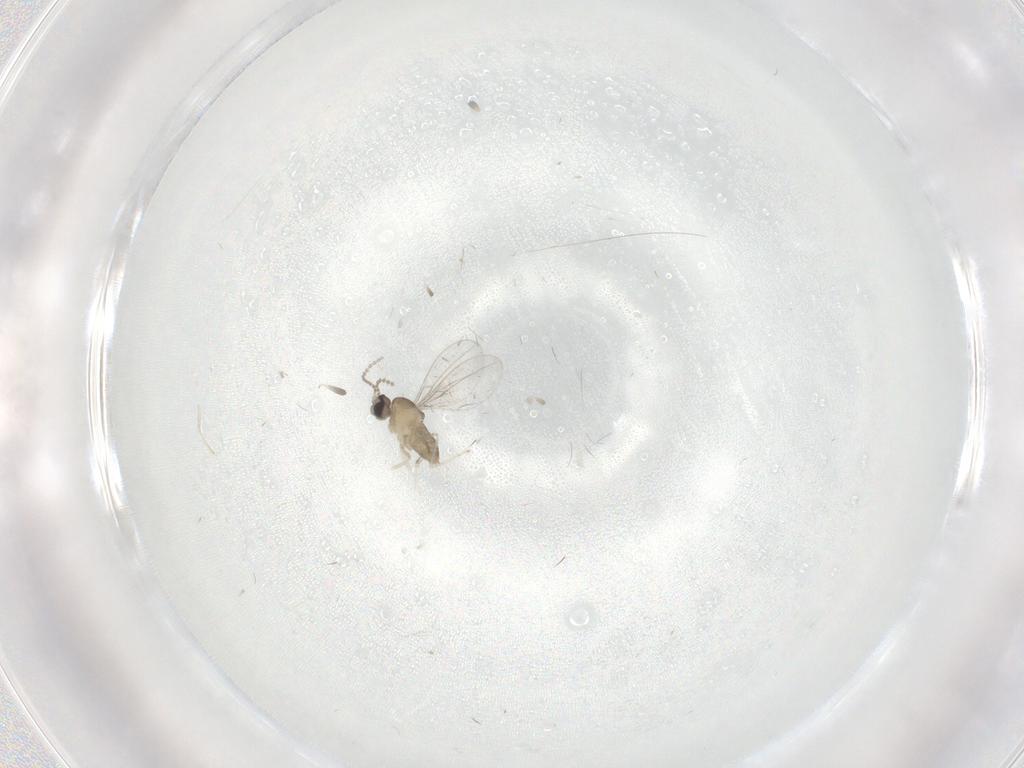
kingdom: Animalia
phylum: Arthropoda
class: Insecta
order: Diptera
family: Cecidomyiidae
